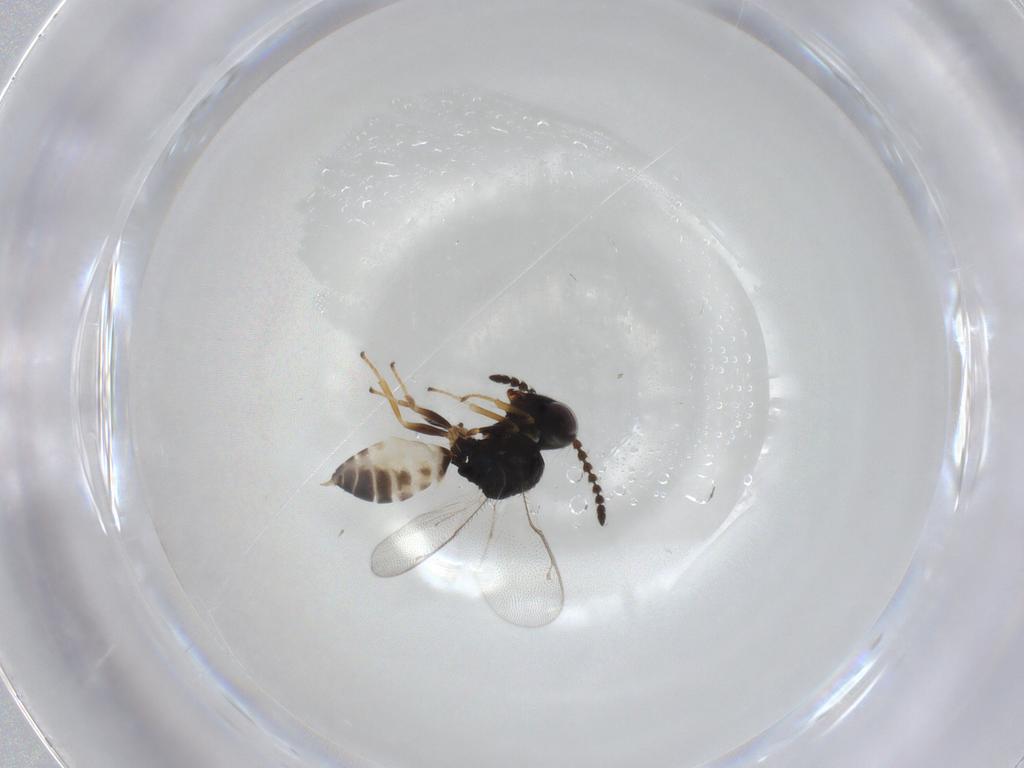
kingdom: Animalia
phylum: Arthropoda
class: Insecta
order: Hymenoptera
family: Pteromalidae
